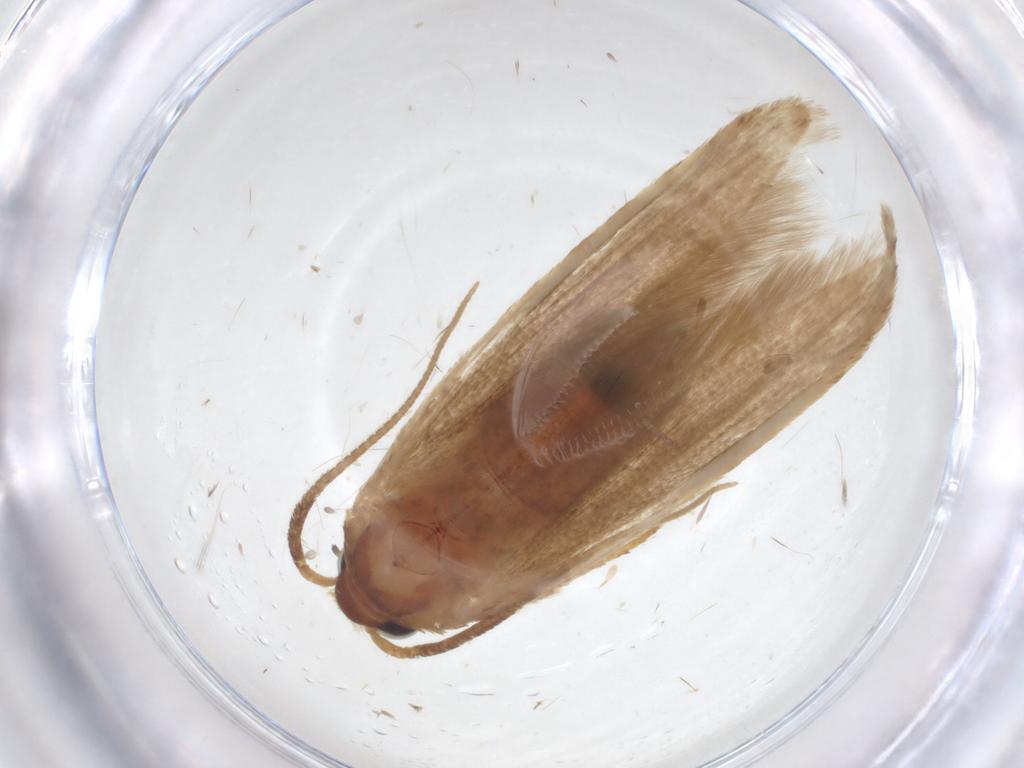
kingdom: Animalia
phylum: Arthropoda
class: Insecta
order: Lepidoptera
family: Blastobasidae
